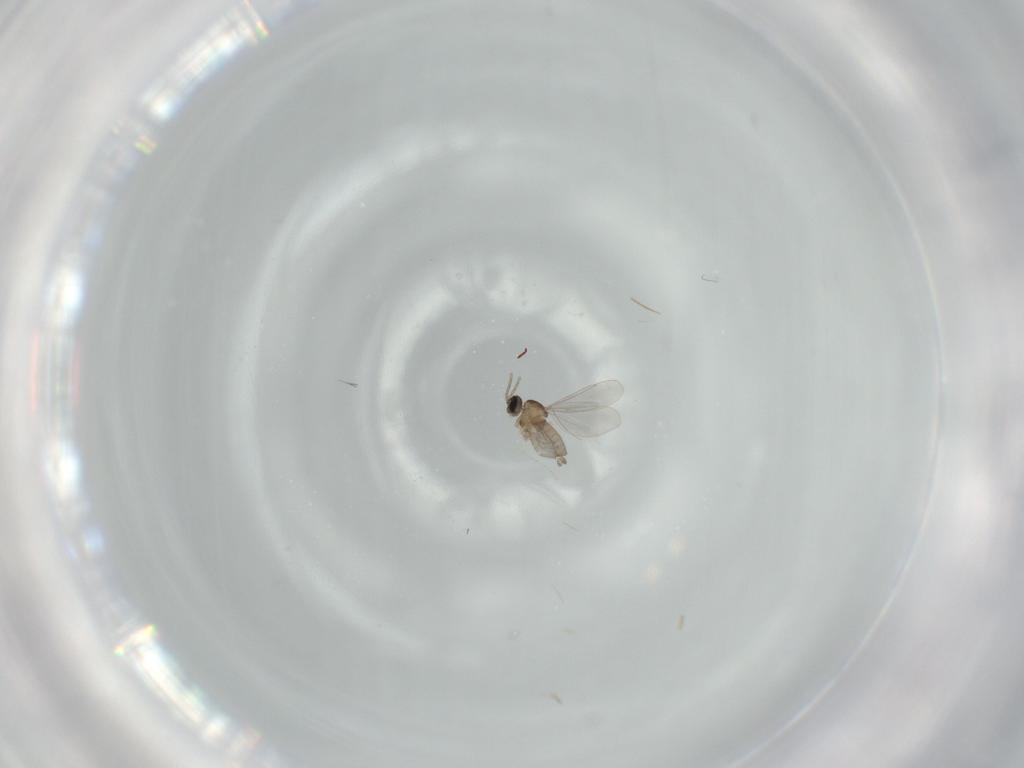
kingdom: Animalia
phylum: Arthropoda
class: Insecta
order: Diptera
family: Cecidomyiidae
